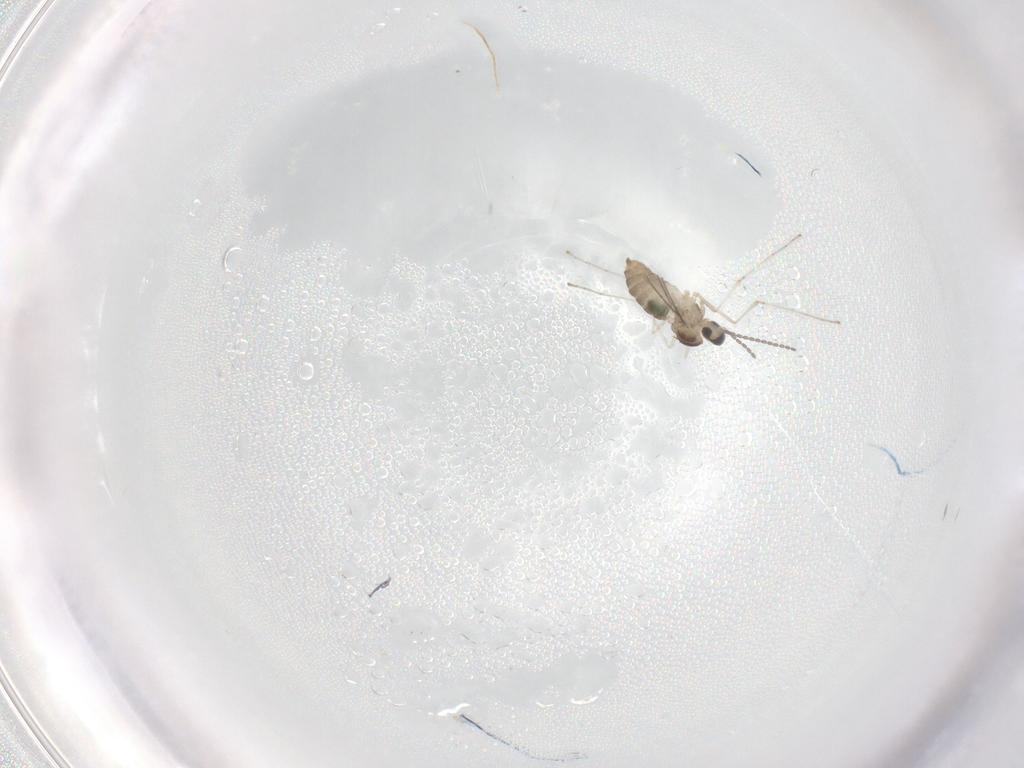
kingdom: Animalia
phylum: Arthropoda
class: Insecta
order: Diptera
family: Cecidomyiidae
